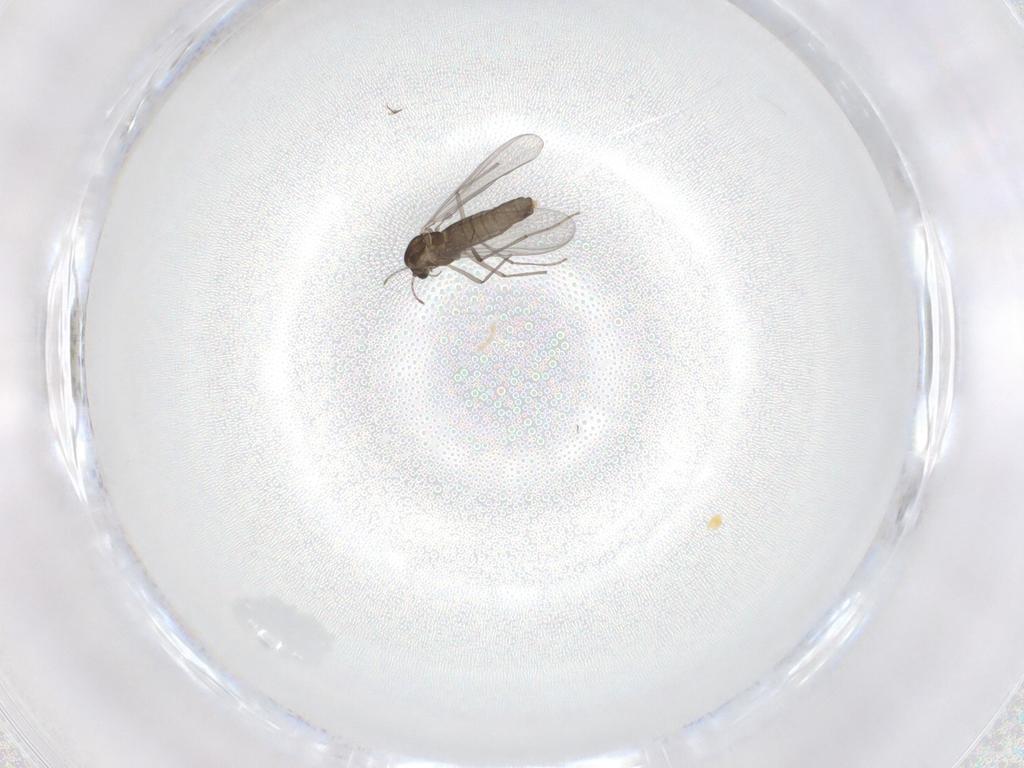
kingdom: Animalia
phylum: Arthropoda
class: Insecta
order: Diptera
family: Chironomidae
